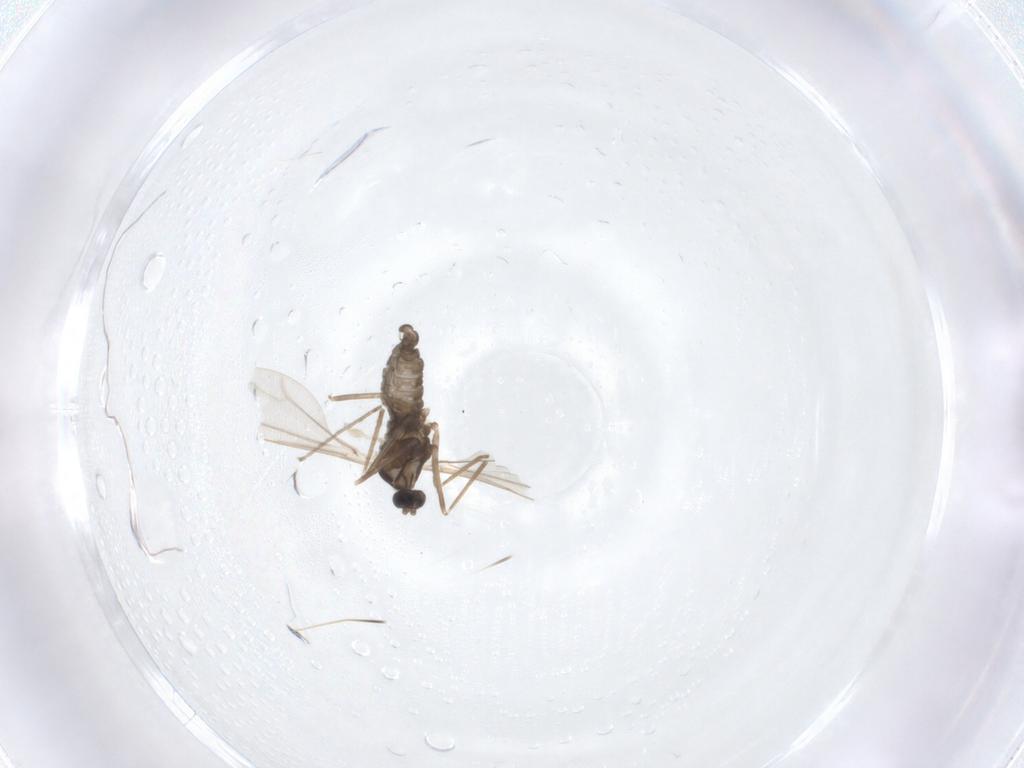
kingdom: Animalia
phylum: Arthropoda
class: Insecta
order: Diptera
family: Cecidomyiidae
